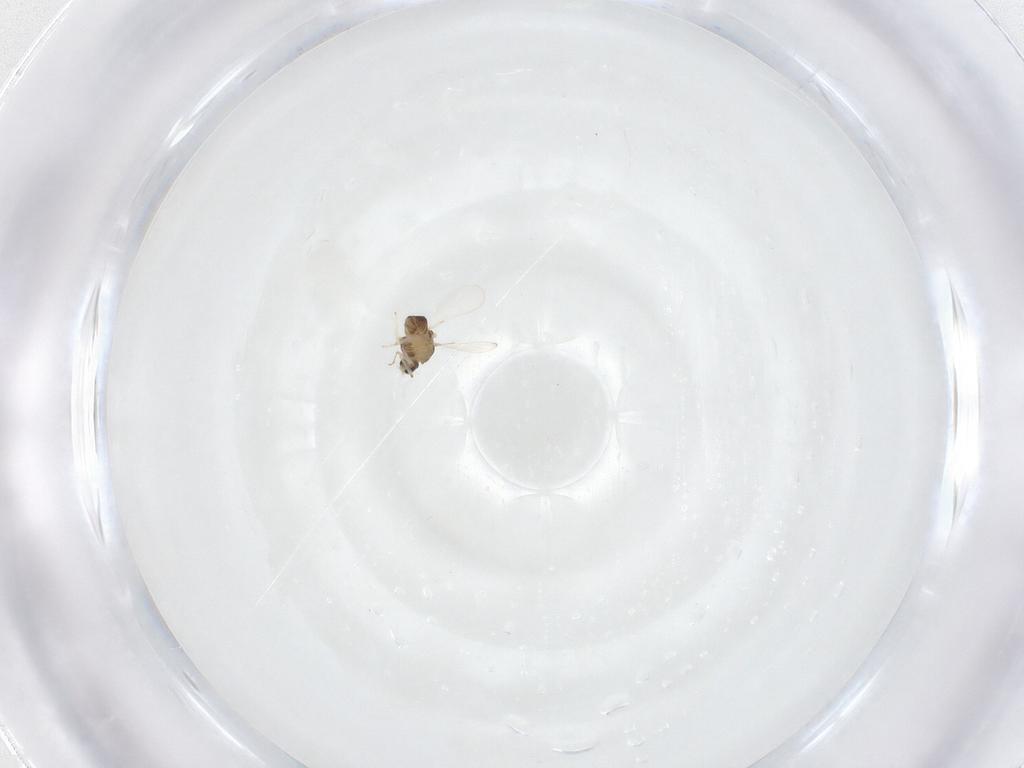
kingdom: Animalia
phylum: Arthropoda
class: Insecta
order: Diptera
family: Chironomidae
